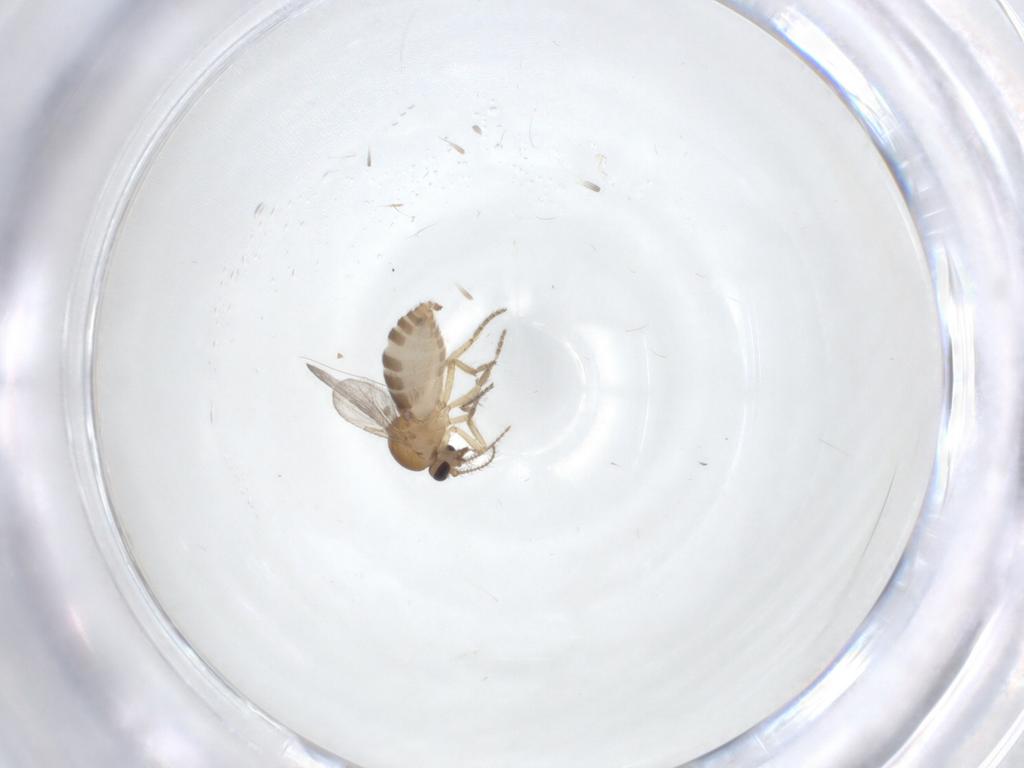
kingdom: Animalia
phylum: Arthropoda
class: Insecta
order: Diptera
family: Ceratopogonidae
